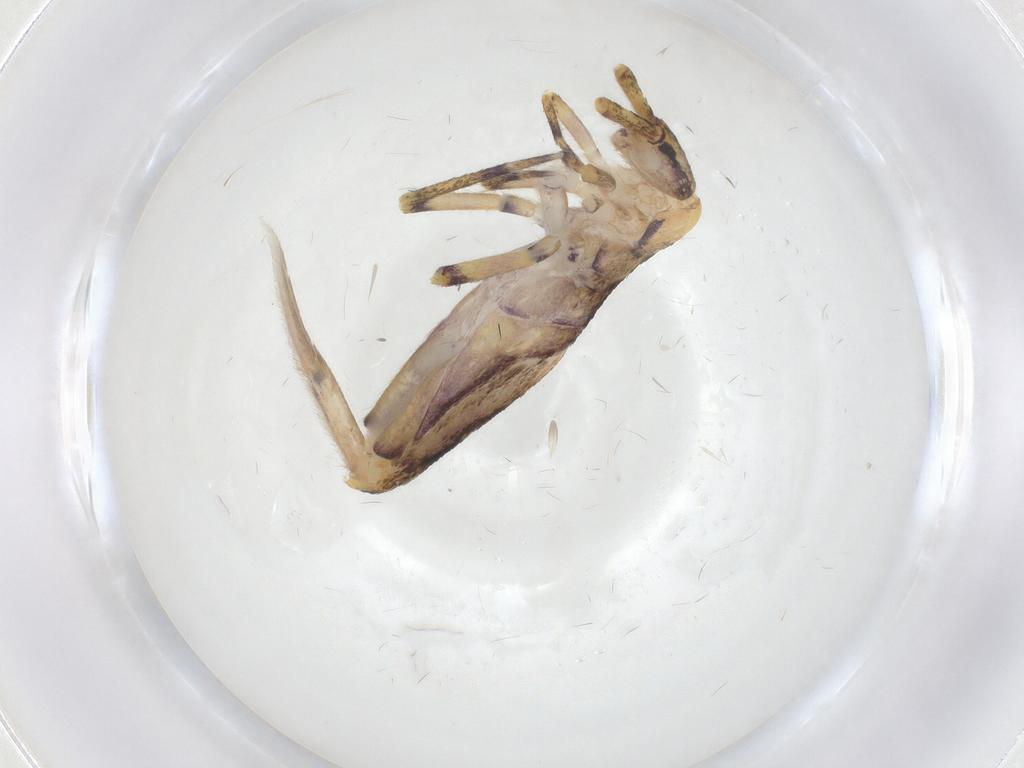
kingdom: Animalia
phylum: Arthropoda
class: Collembola
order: Entomobryomorpha
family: Entomobryidae
